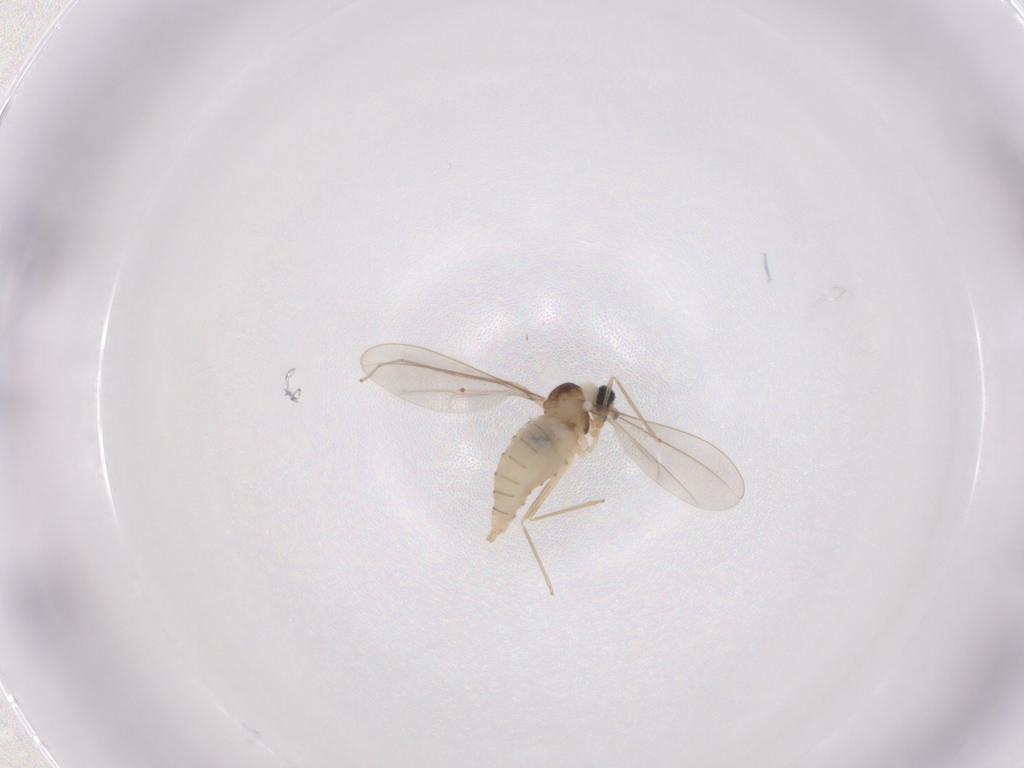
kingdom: Animalia
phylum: Arthropoda
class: Insecta
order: Diptera
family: Cecidomyiidae
